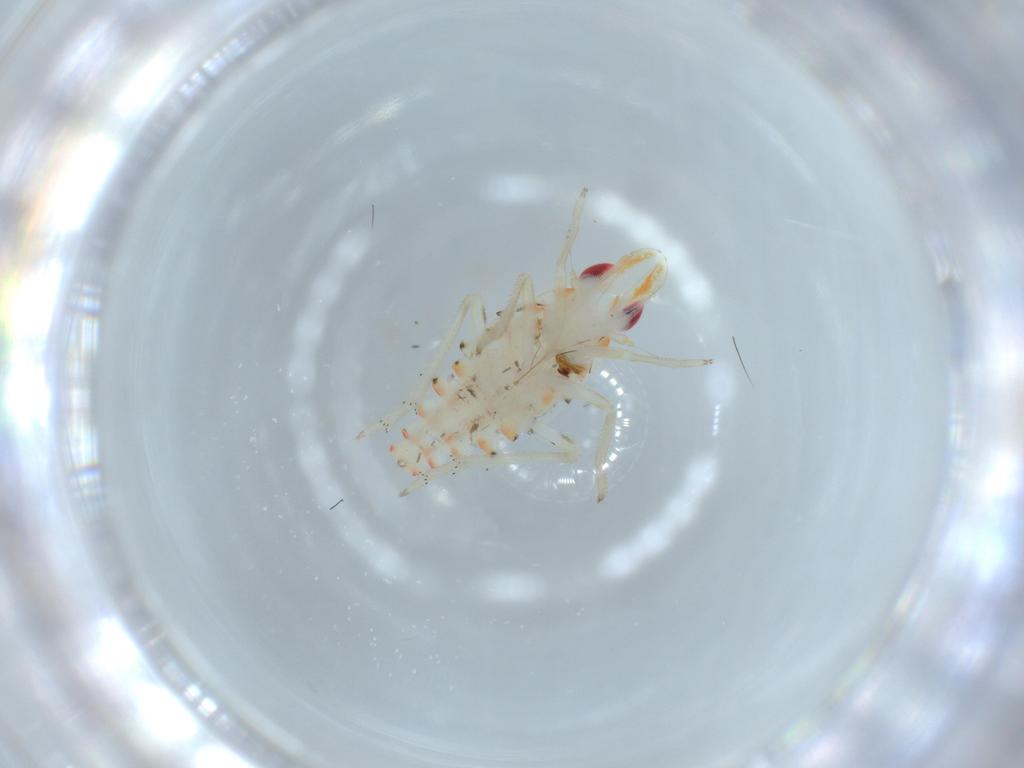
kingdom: Animalia
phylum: Arthropoda
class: Insecta
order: Hemiptera
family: Tropiduchidae
